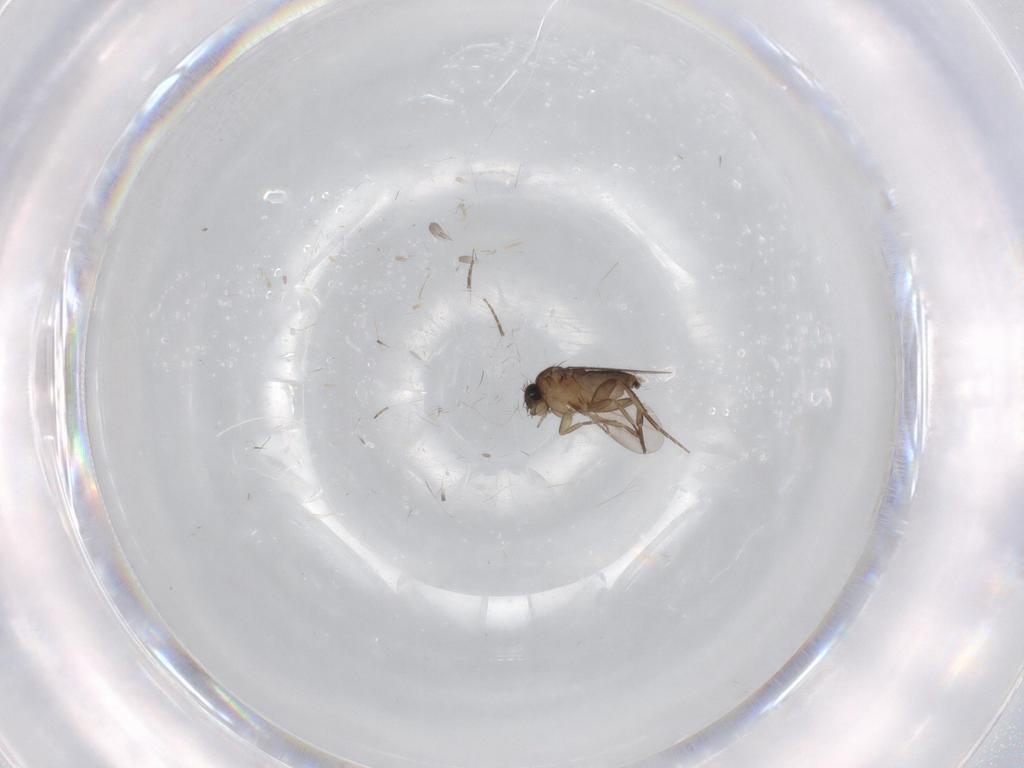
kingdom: Animalia
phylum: Arthropoda
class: Insecta
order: Diptera
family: Phoridae
